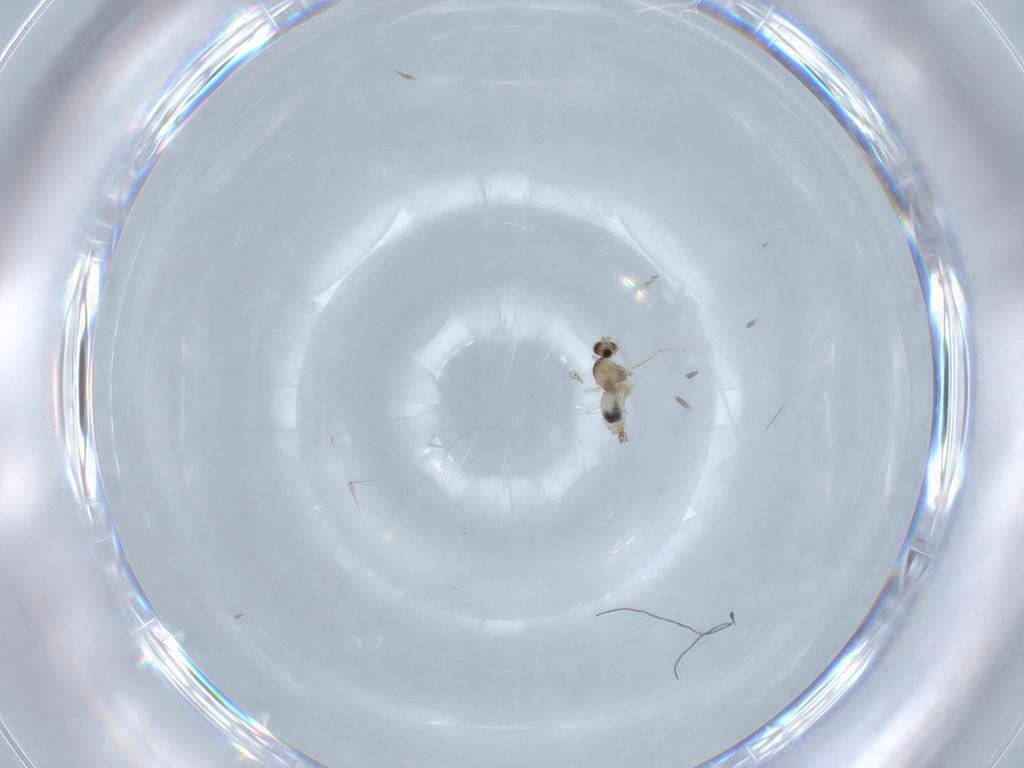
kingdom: Animalia
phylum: Arthropoda
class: Insecta
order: Diptera
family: Cecidomyiidae
